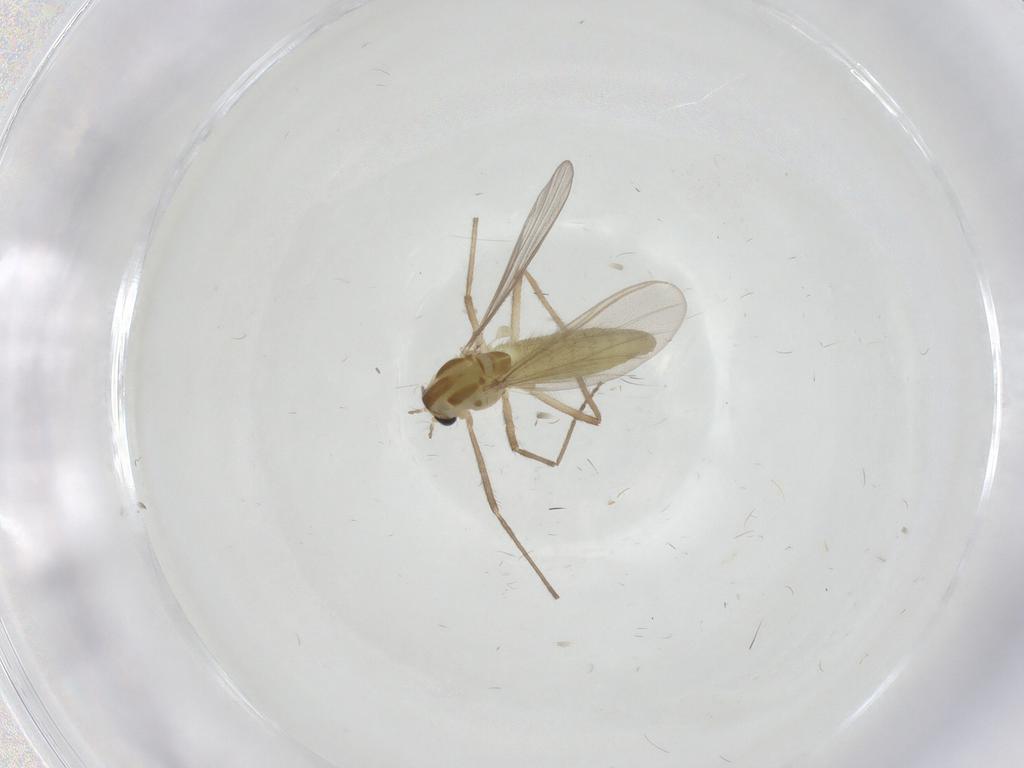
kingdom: Animalia
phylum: Arthropoda
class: Insecta
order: Diptera
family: Chironomidae
